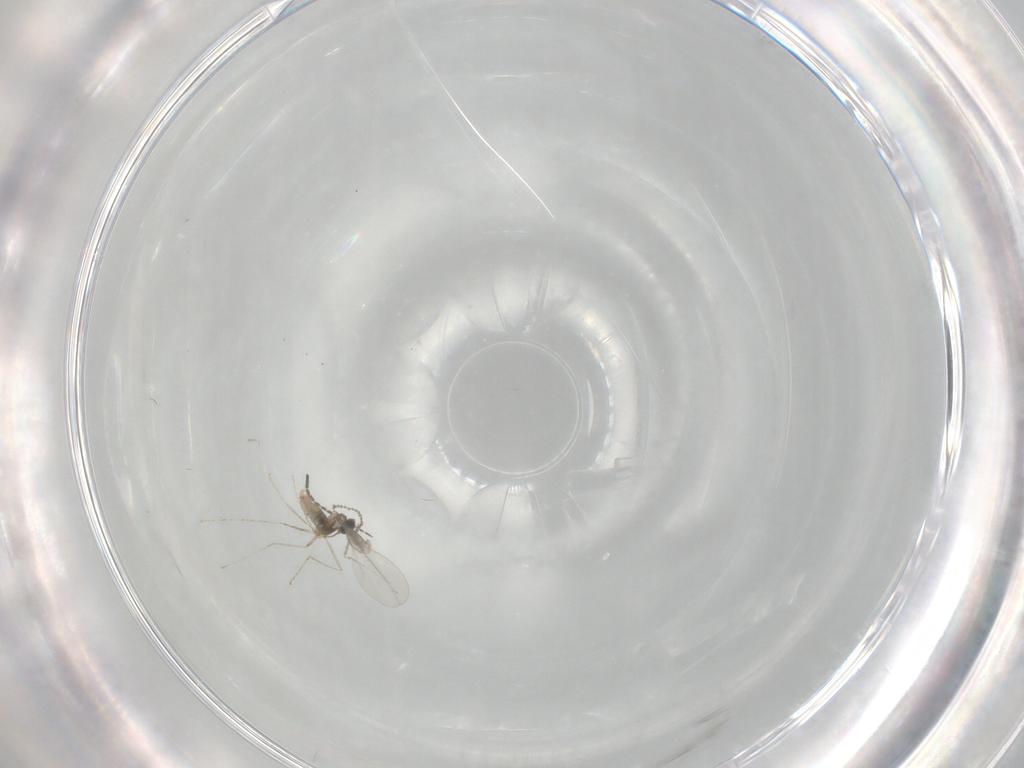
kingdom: Animalia
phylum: Arthropoda
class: Insecta
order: Diptera
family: Cecidomyiidae
